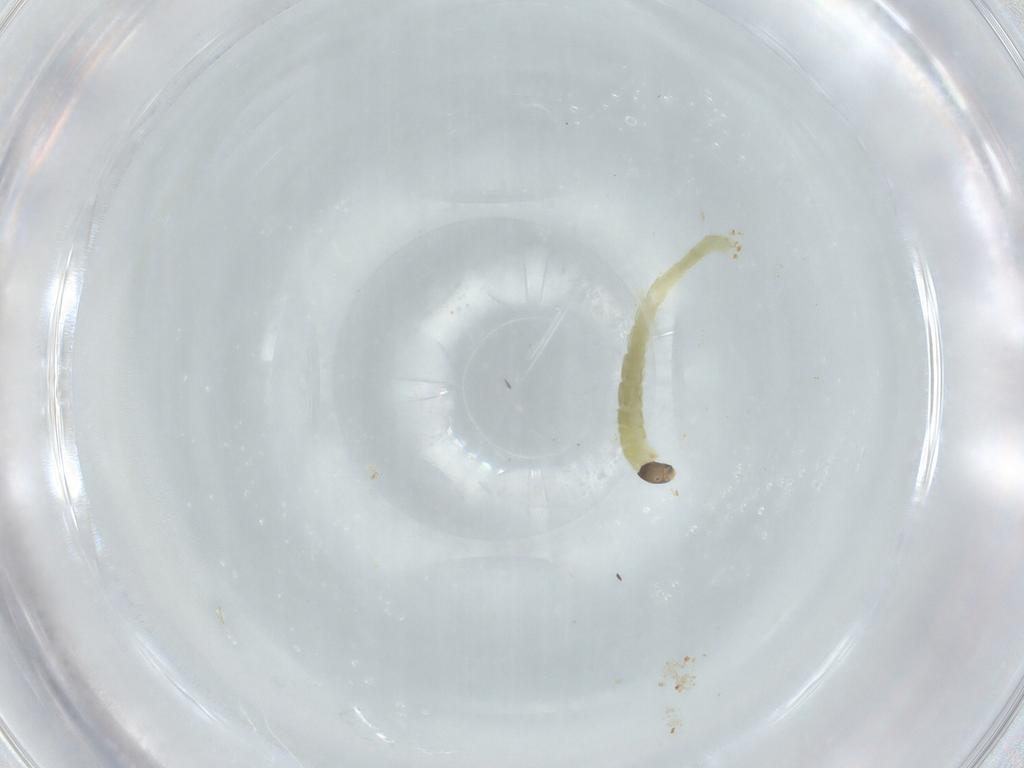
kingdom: Animalia
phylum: Arthropoda
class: Insecta
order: Diptera
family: Chironomidae
